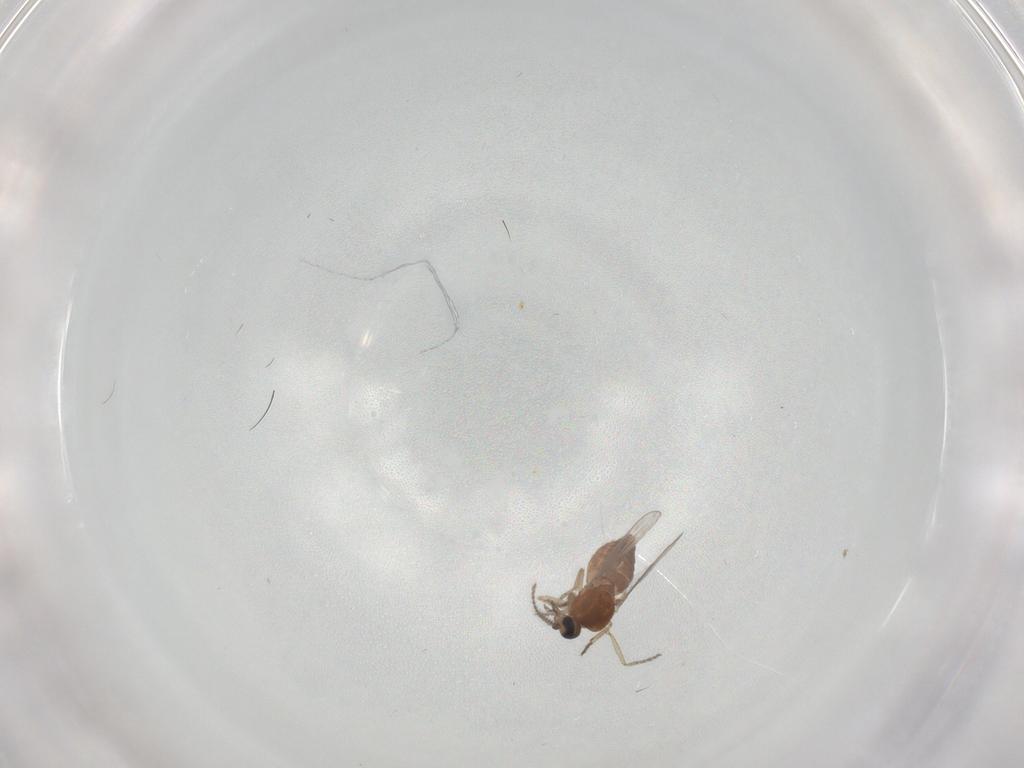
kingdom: Animalia
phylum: Arthropoda
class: Insecta
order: Diptera
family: Ceratopogonidae
